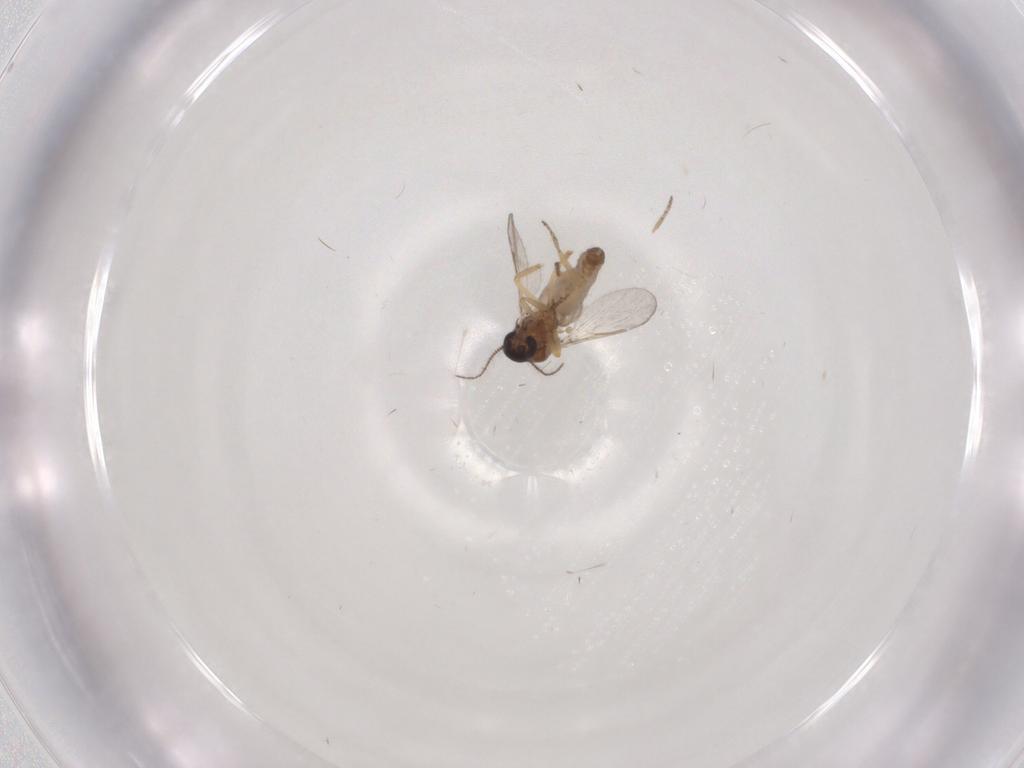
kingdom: Animalia
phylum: Arthropoda
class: Insecta
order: Diptera
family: Ceratopogonidae
